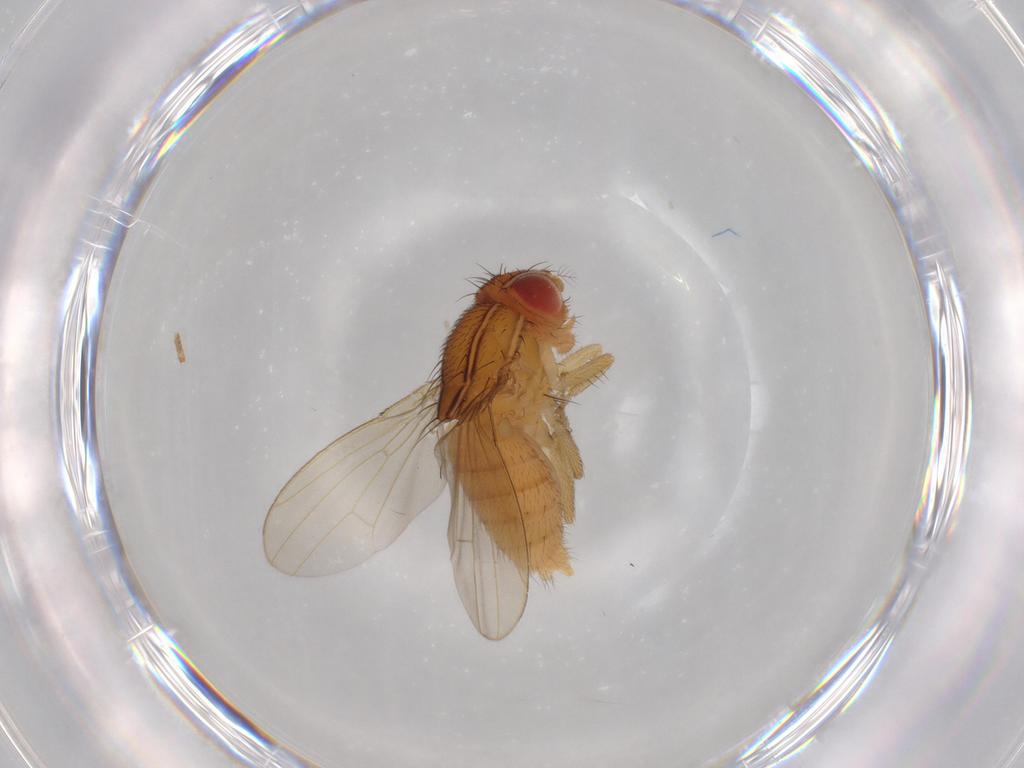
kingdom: Animalia
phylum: Arthropoda
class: Insecta
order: Diptera
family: Drosophilidae
